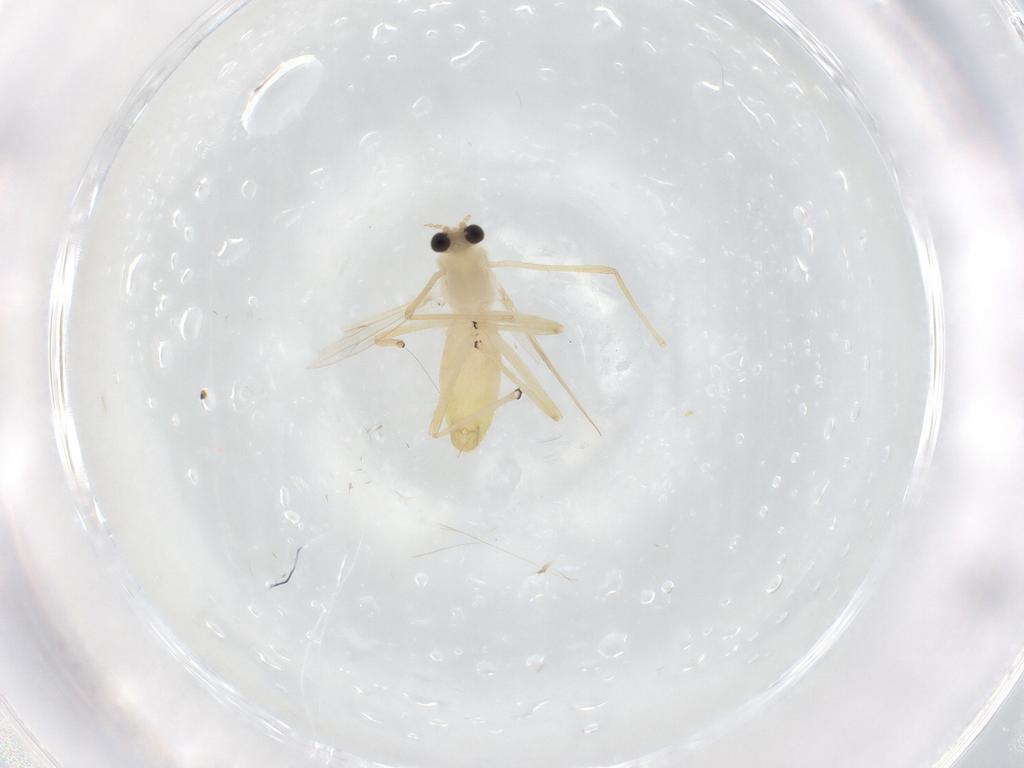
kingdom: Animalia
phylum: Arthropoda
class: Insecta
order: Diptera
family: Chironomidae
